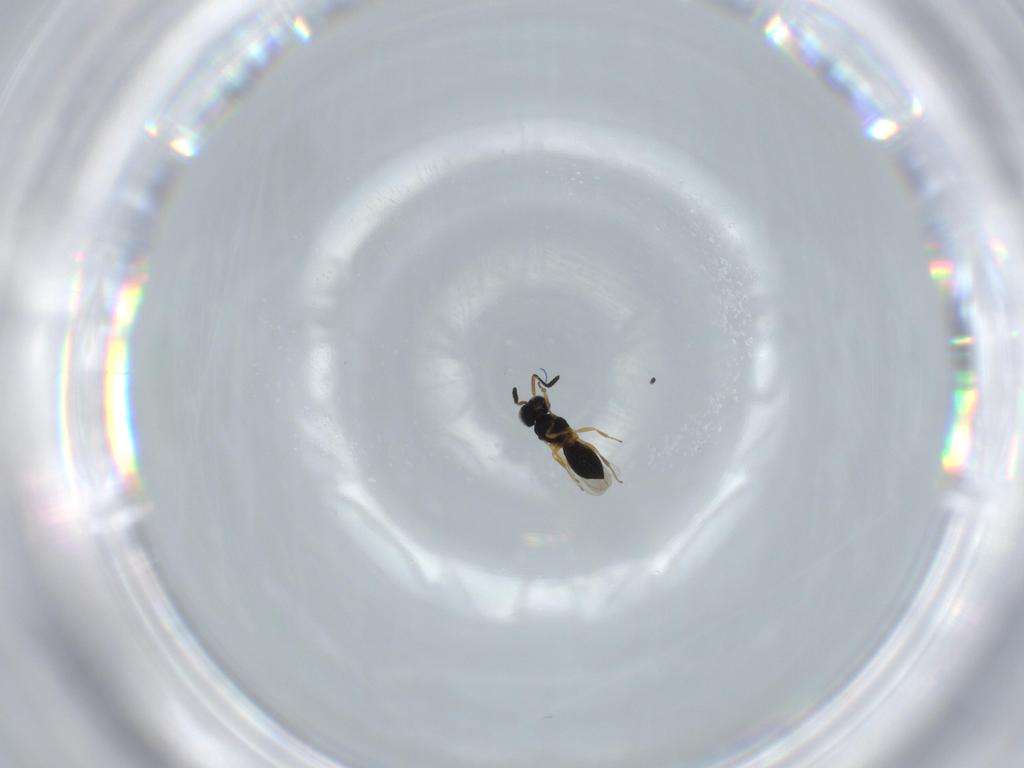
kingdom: Animalia
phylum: Arthropoda
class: Insecta
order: Hymenoptera
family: Scelionidae
